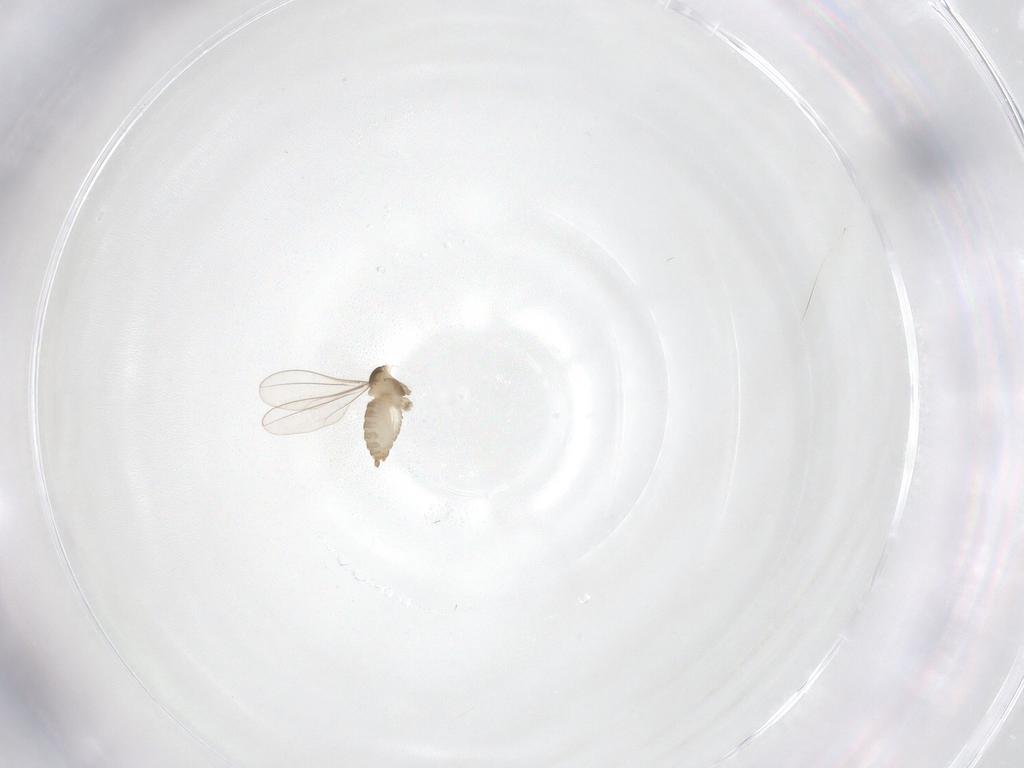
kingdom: Animalia
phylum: Arthropoda
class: Insecta
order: Diptera
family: Cecidomyiidae
